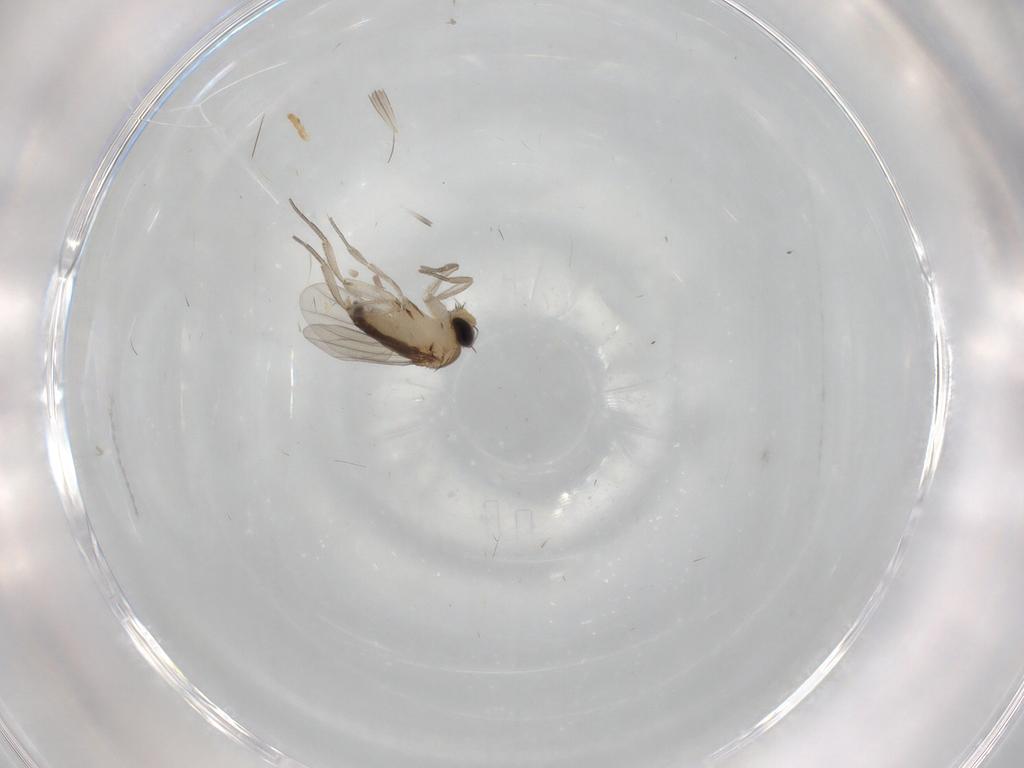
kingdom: Animalia
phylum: Arthropoda
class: Insecta
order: Diptera
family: Phoridae
